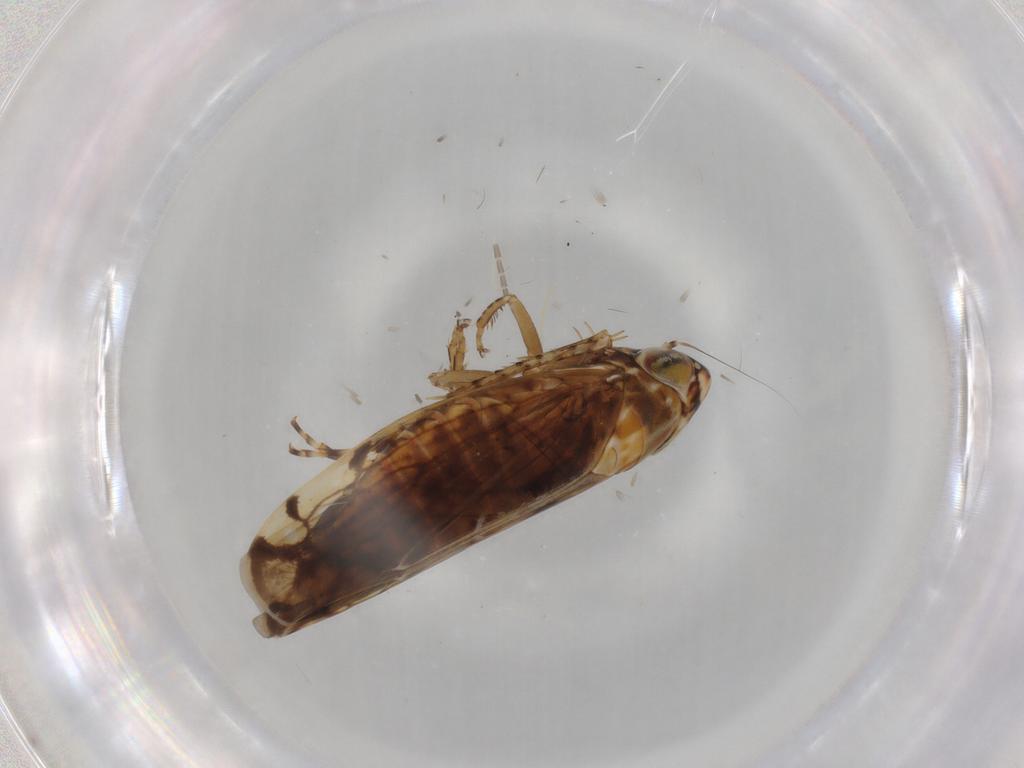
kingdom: Animalia
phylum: Arthropoda
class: Insecta
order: Hemiptera
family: Cicadellidae
